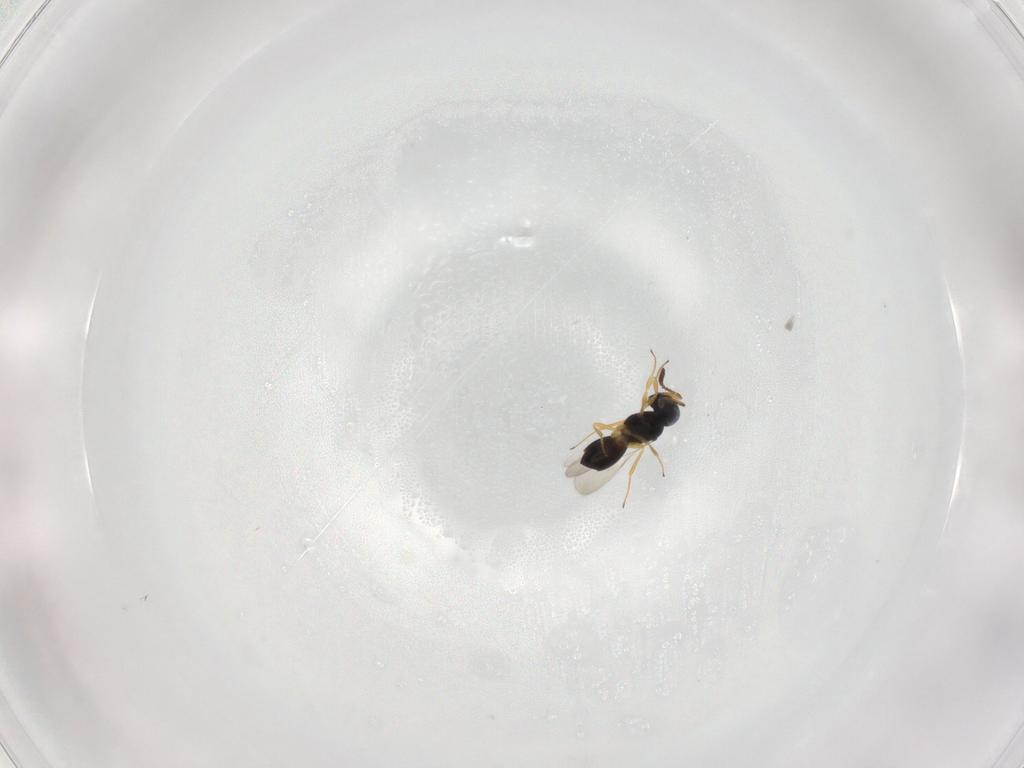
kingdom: Animalia
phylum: Arthropoda
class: Insecta
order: Hymenoptera
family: Scelionidae
